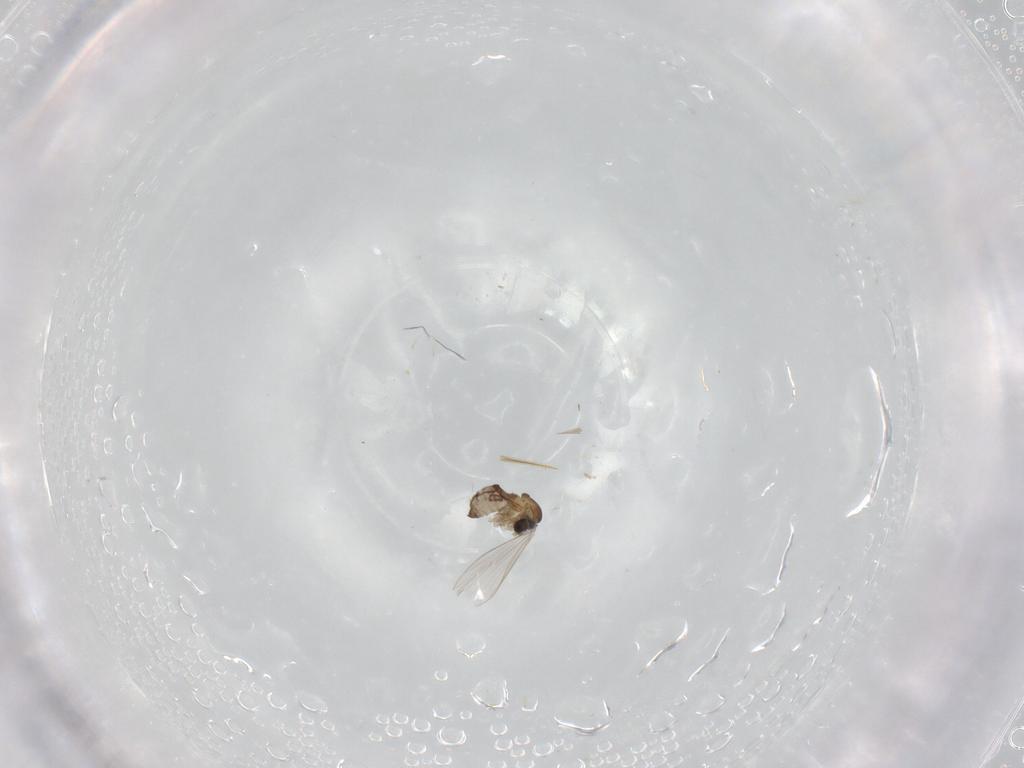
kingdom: Animalia
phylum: Arthropoda
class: Insecta
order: Diptera
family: Psychodidae
